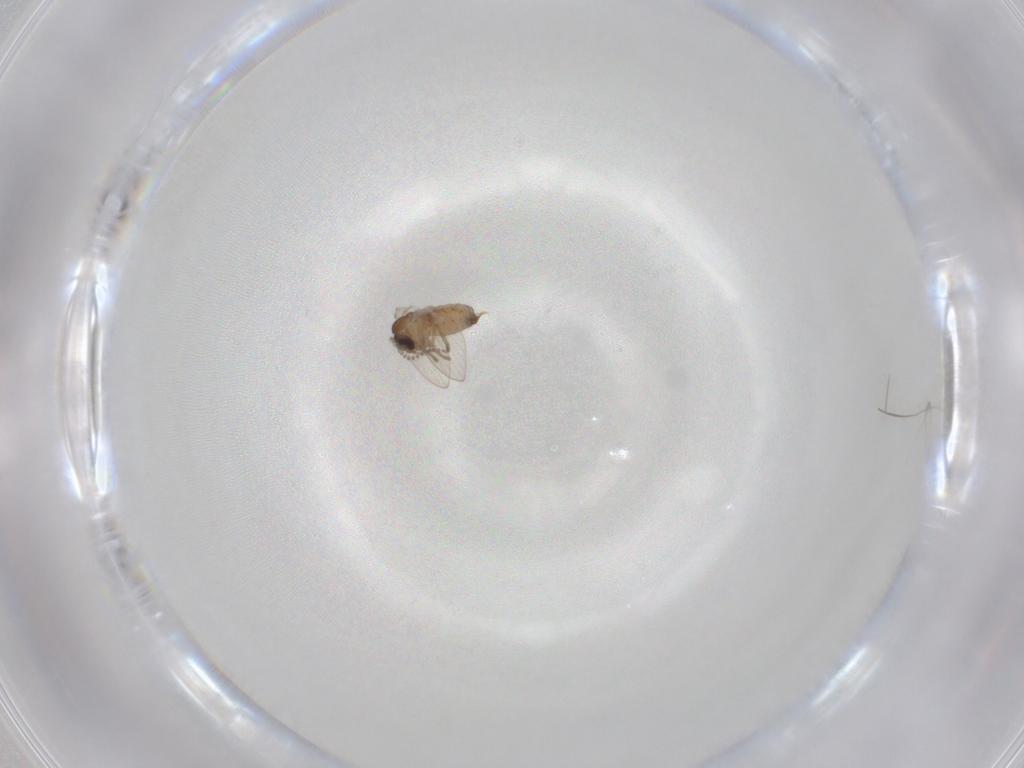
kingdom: Animalia
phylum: Arthropoda
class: Insecta
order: Diptera
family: Psychodidae
